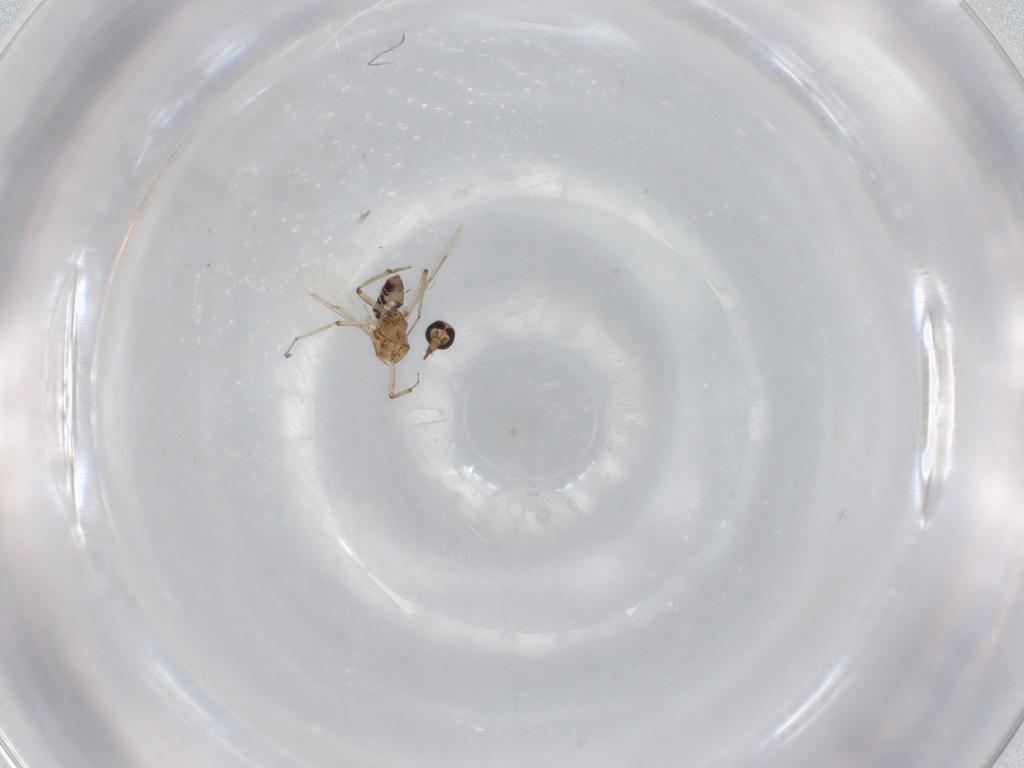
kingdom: Animalia
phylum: Arthropoda
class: Insecta
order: Diptera
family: Ceratopogonidae
